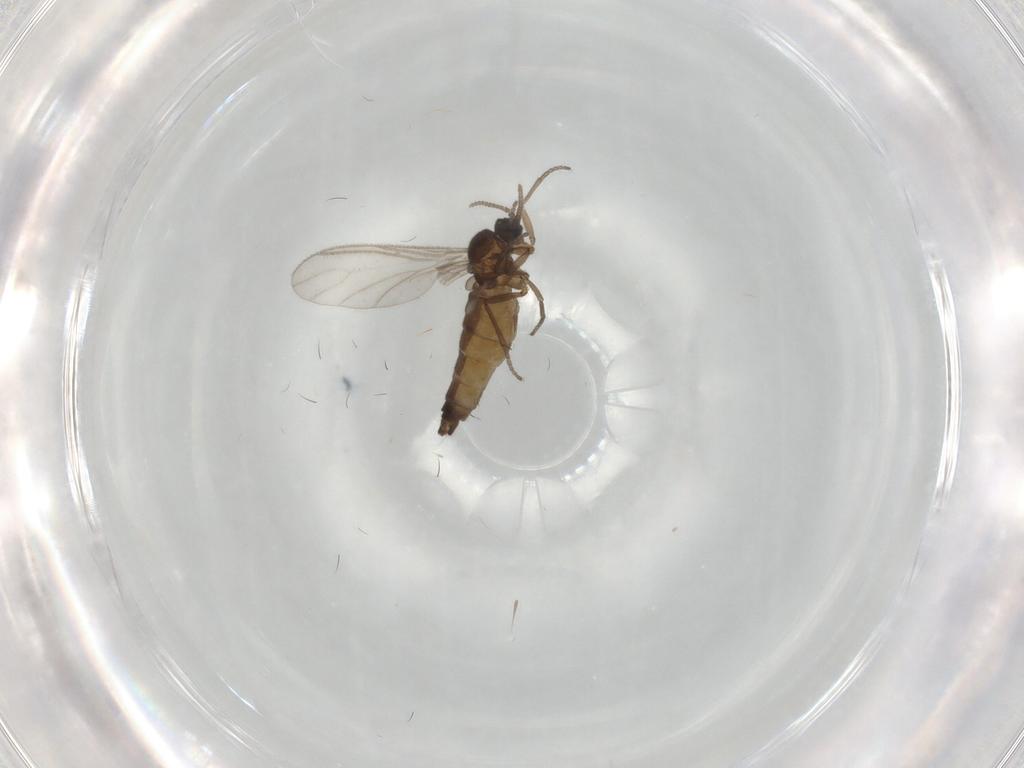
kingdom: Animalia
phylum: Arthropoda
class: Insecta
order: Diptera
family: Sciaridae
